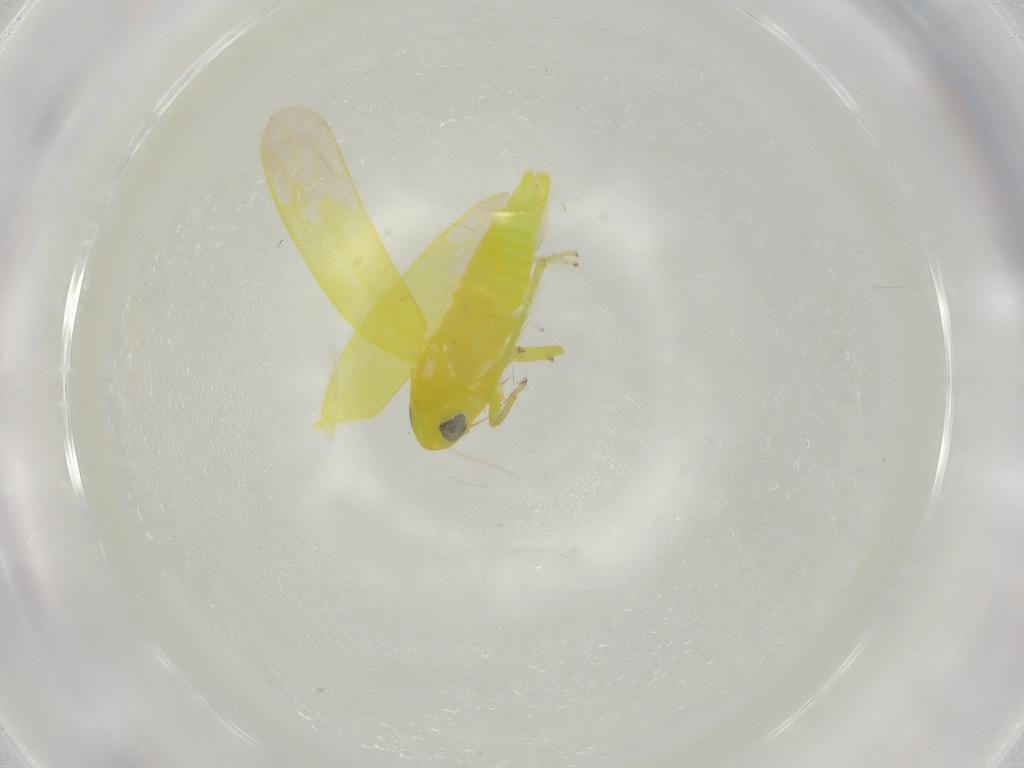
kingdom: Animalia
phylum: Arthropoda
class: Insecta
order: Hemiptera
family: Cicadellidae
